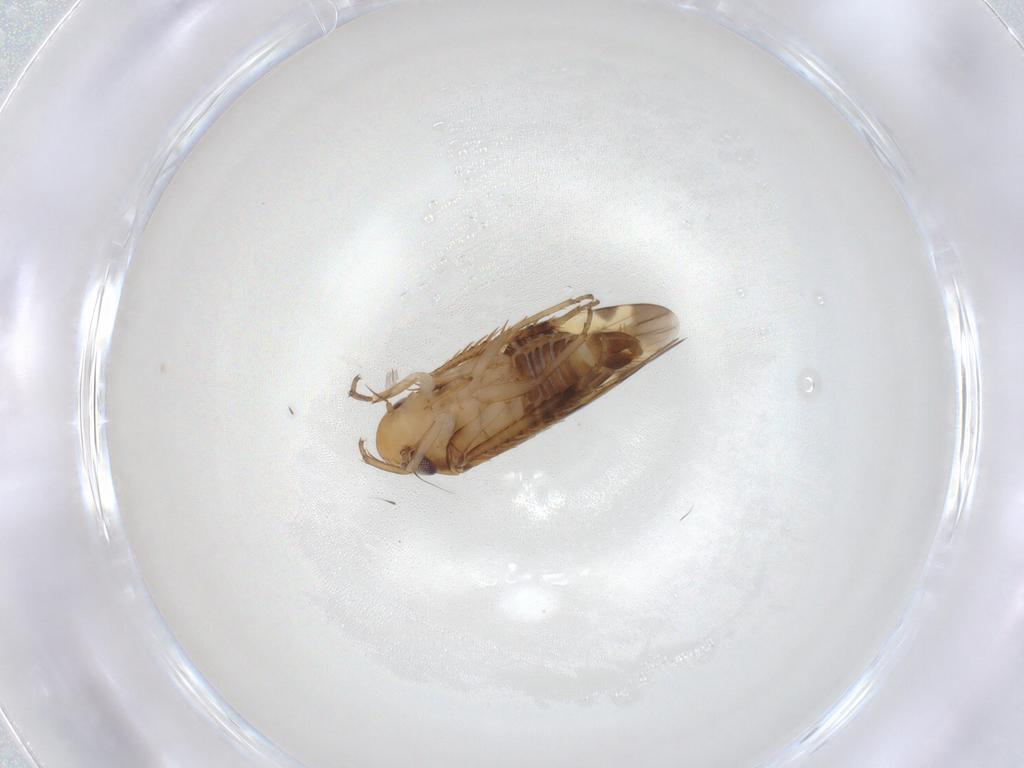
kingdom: Animalia
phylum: Arthropoda
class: Insecta
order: Hemiptera
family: Cicadellidae
